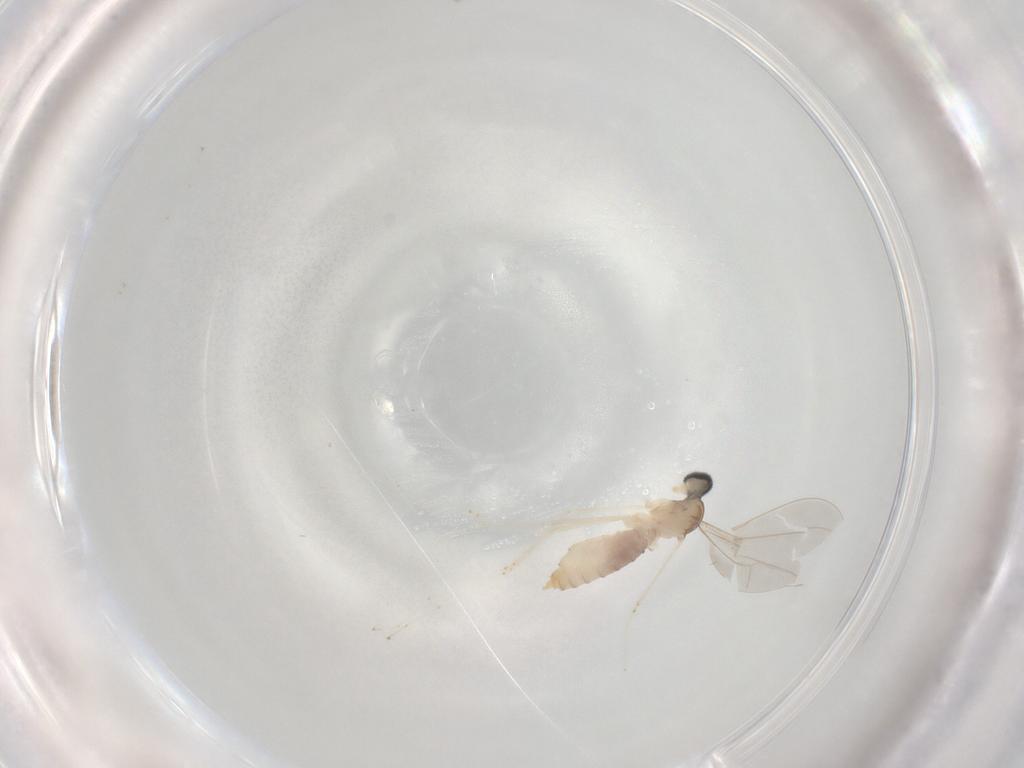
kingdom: Animalia
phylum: Arthropoda
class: Insecta
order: Diptera
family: Cecidomyiidae
